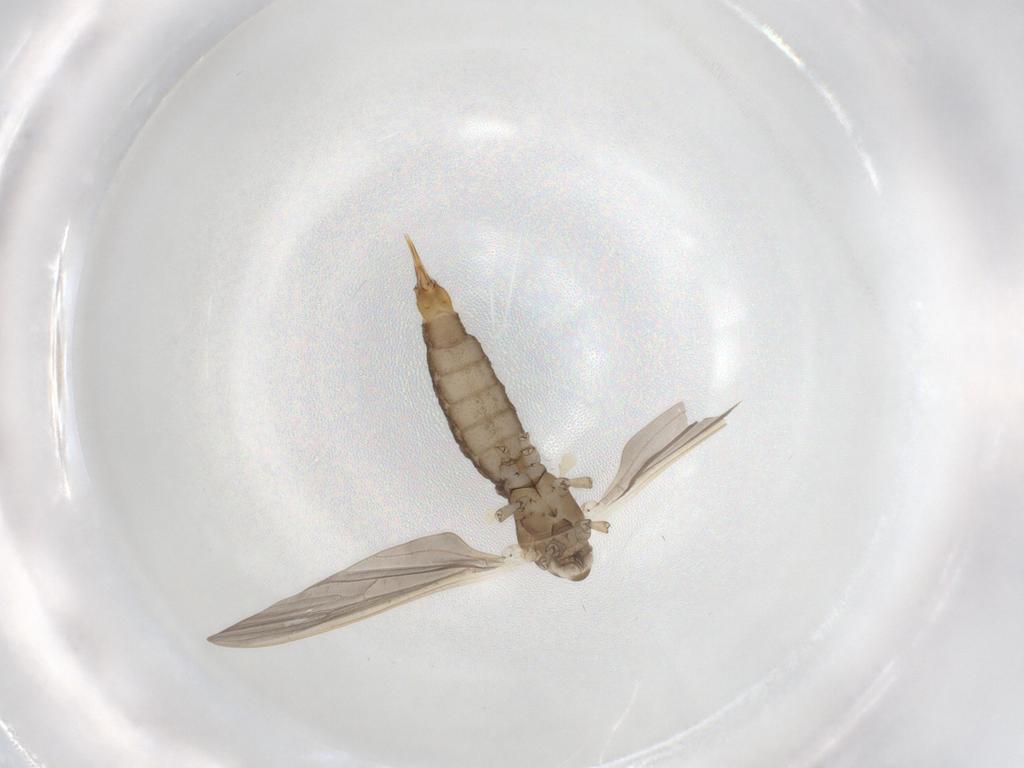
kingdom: Animalia
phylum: Arthropoda
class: Insecta
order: Diptera
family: Limoniidae
